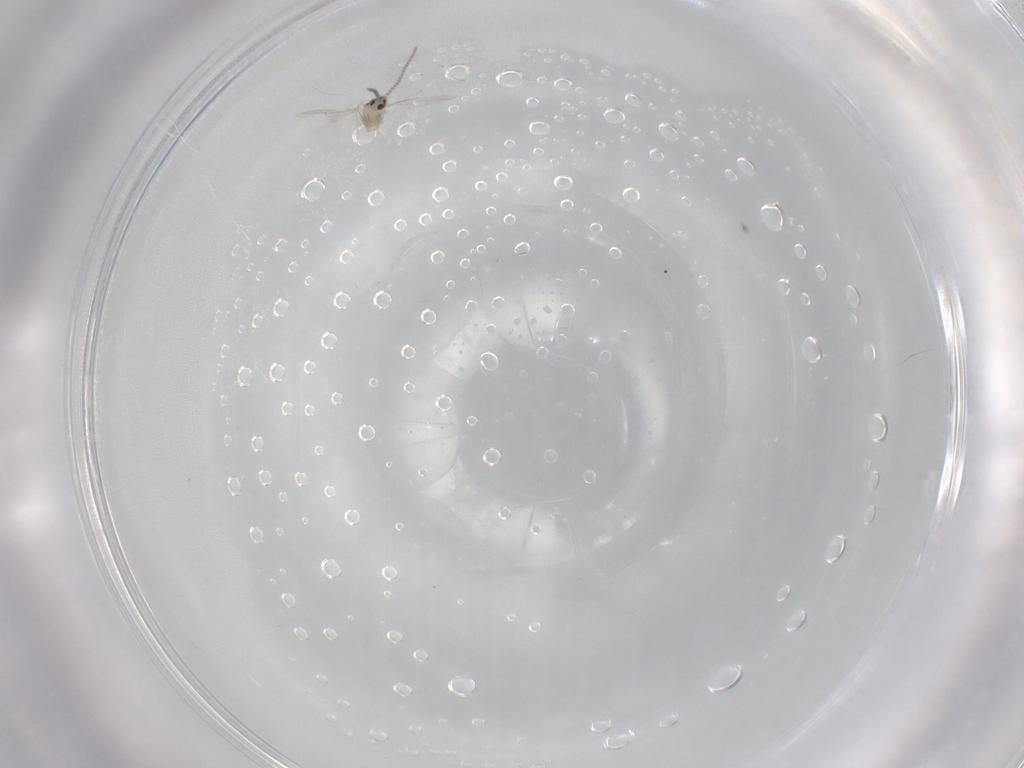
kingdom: Animalia
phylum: Arthropoda
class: Insecta
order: Diptera
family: Cecidomyiidae
